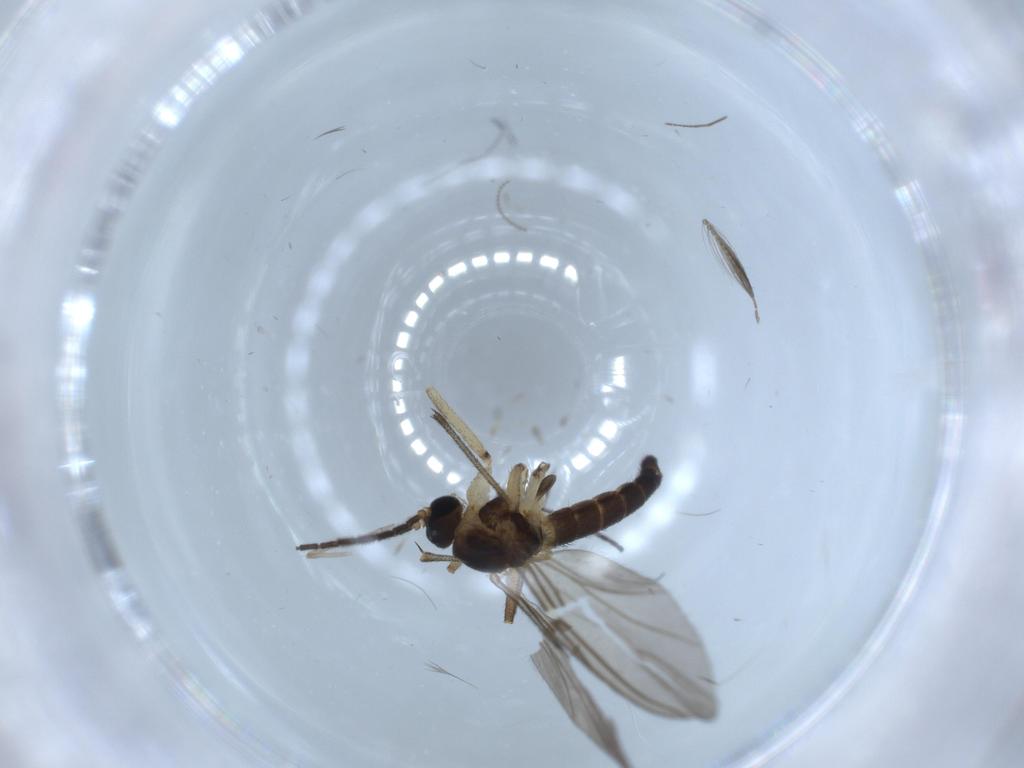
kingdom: Animalia
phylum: Arthropoda
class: Insecta
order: Diptera
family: Sciaridae
